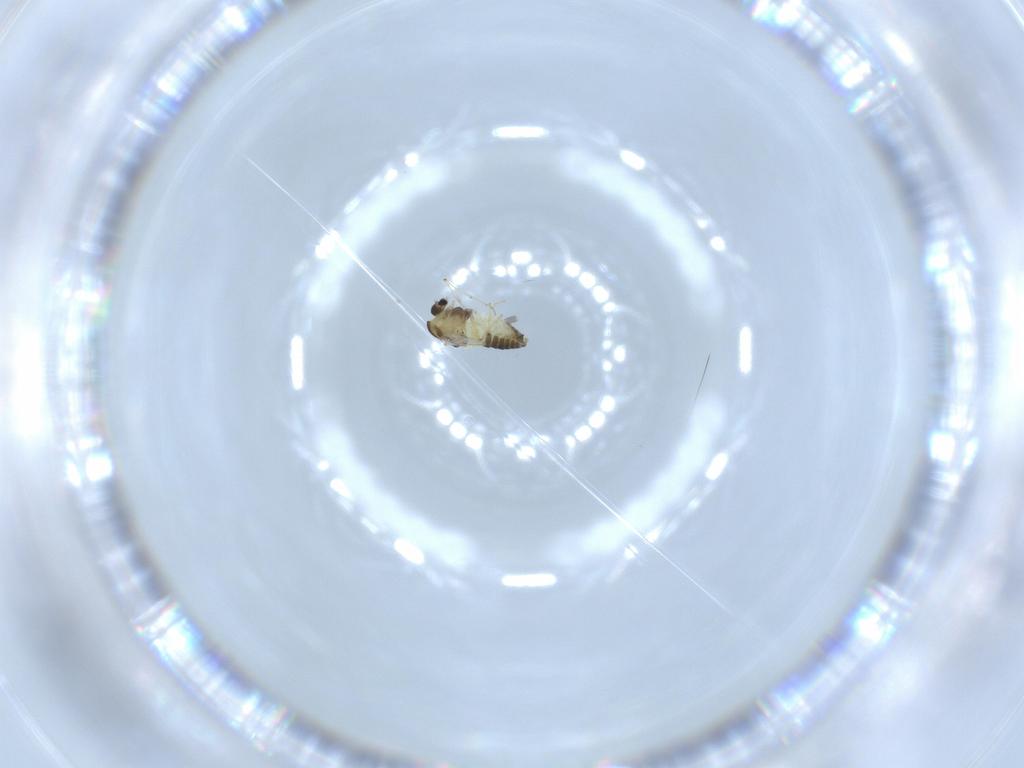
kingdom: Animalia
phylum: Arthropoda
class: Insecta
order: Diptera
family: Chironomidae
